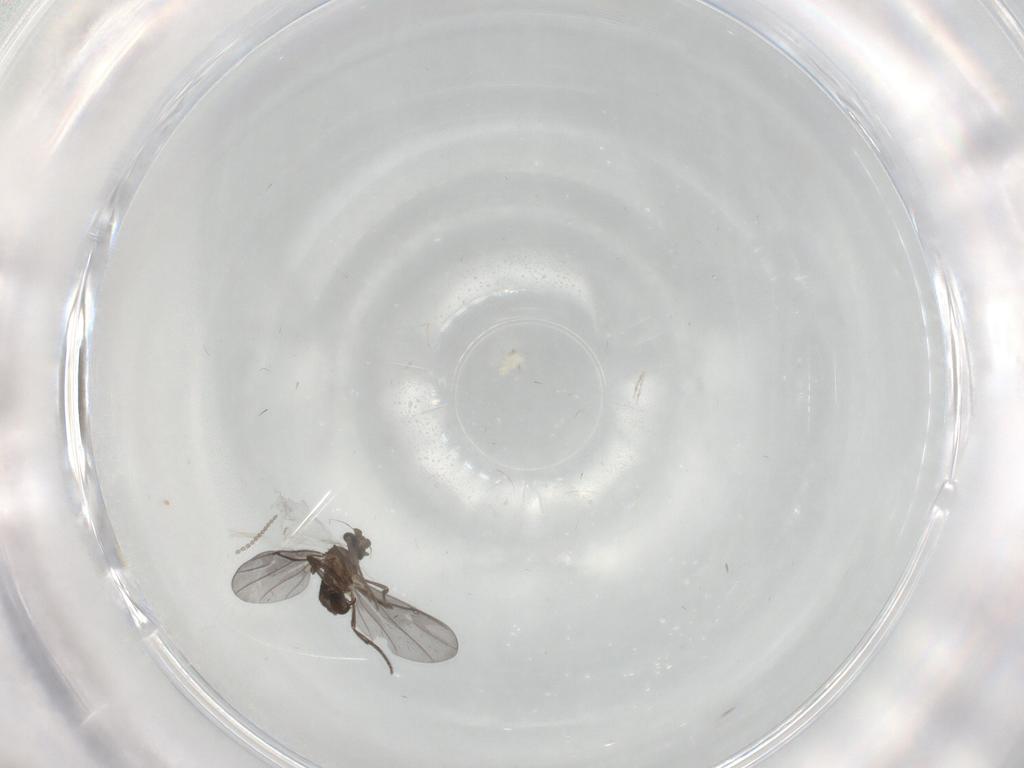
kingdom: Animalia
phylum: Arthropoda
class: Insecta
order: Diptera
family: Phoridae
